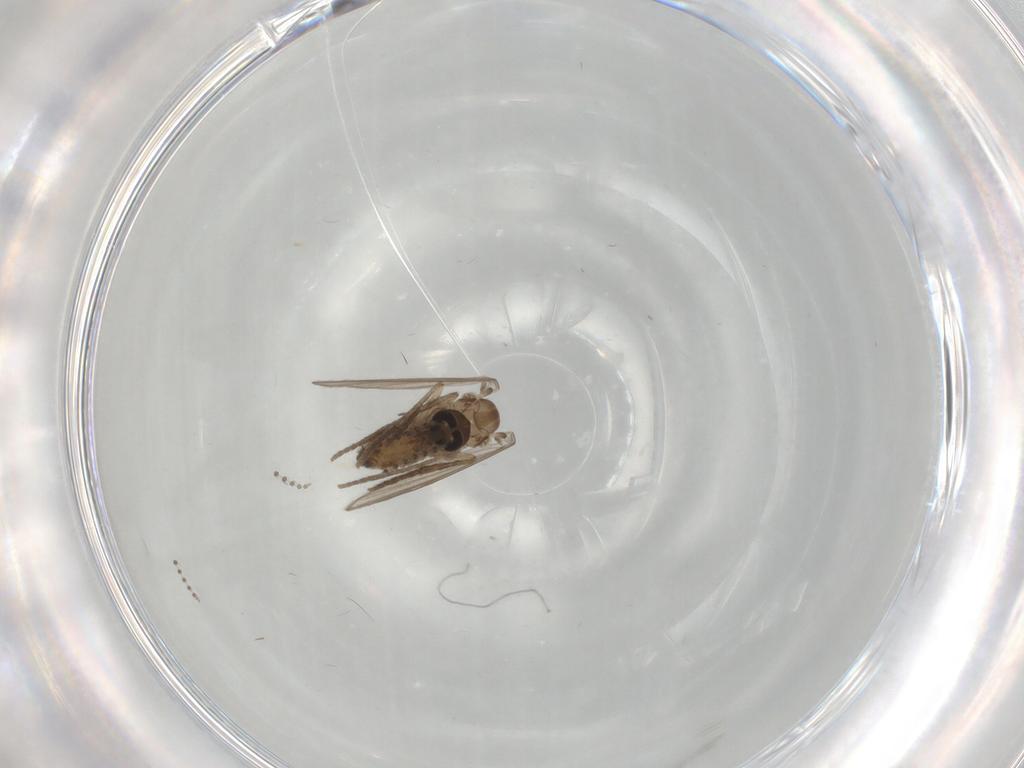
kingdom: Animalia
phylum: Arthropoda
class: Insecta
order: Diptera
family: Psychodidae
